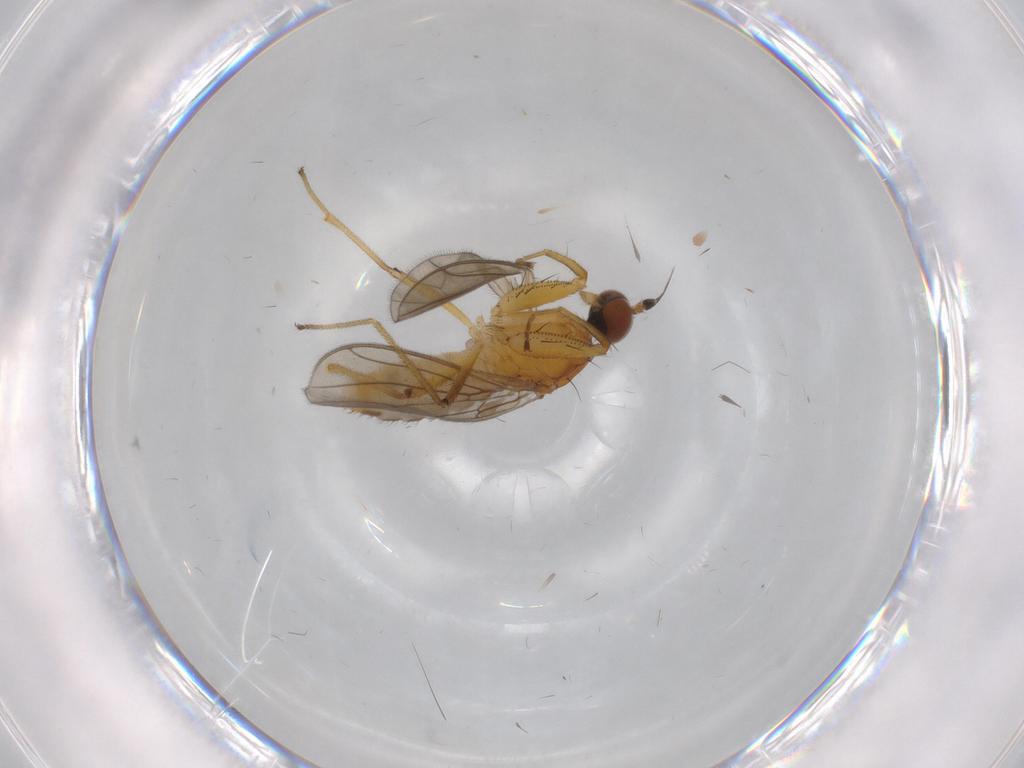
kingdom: Animalia
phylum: Arthropoda
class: Insecta
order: Diptera
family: Empididae
